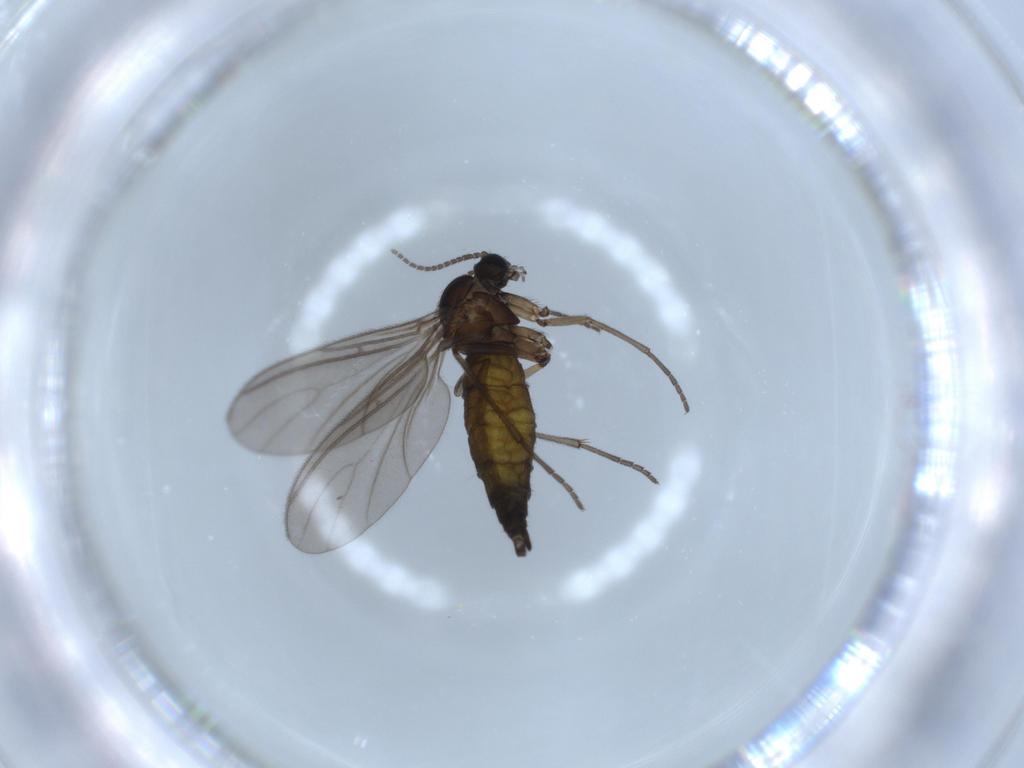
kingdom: Animalia
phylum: Arthropoda
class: Insecta
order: Diptera
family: Sciaridae
